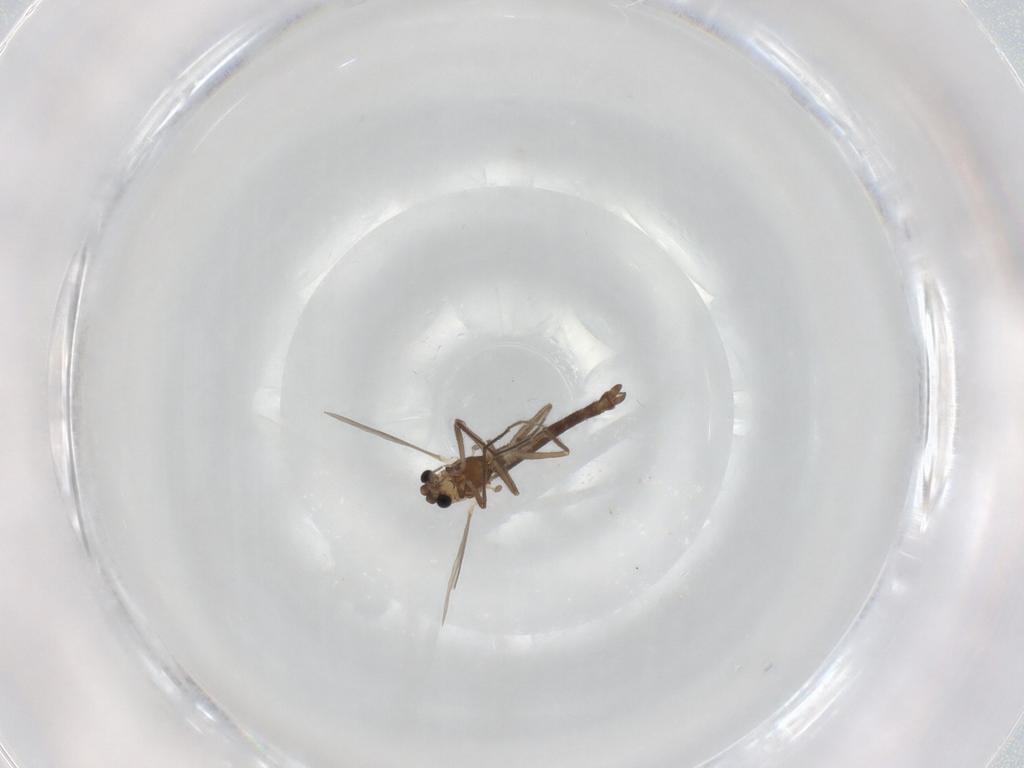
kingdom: Animalia
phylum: Arthropoda
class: Insecta
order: Diptera
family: Chironomidae
